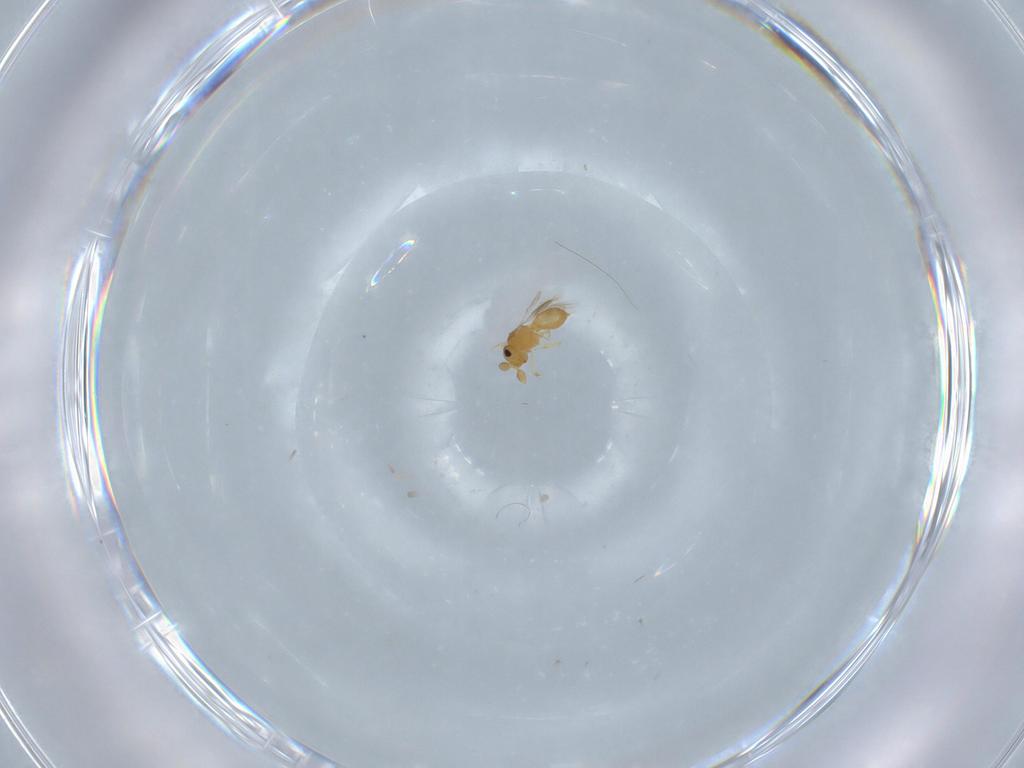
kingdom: Animalia
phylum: Arthropoda
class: Insecta
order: Hymenoptera
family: Scelionidae
